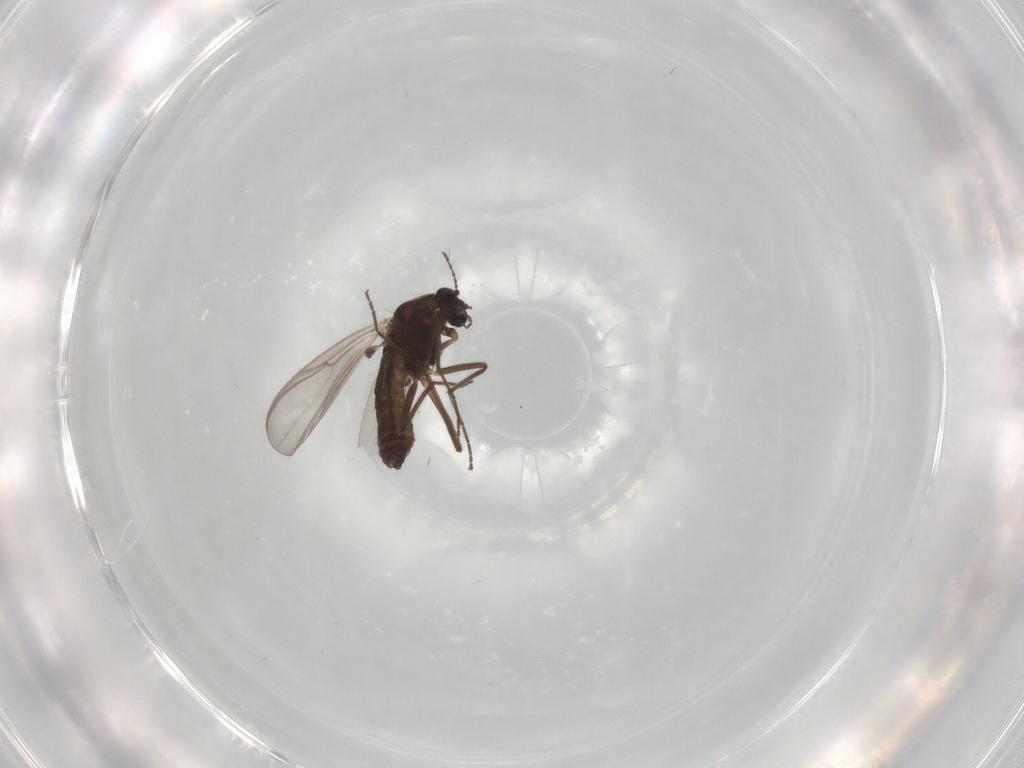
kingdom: Animalia
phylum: Arthropoda
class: Insecta
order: Diptera
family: Chironomidae
